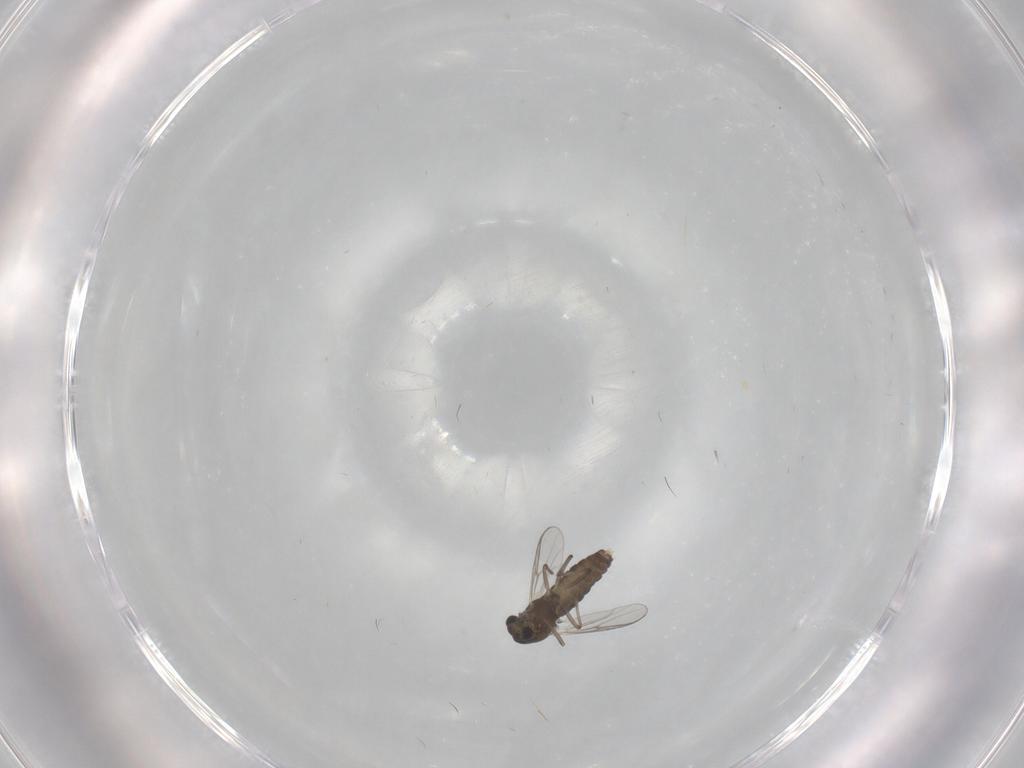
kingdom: Animalia
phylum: Arthropoda
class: Insecta
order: Diptera
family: Chironomidae
